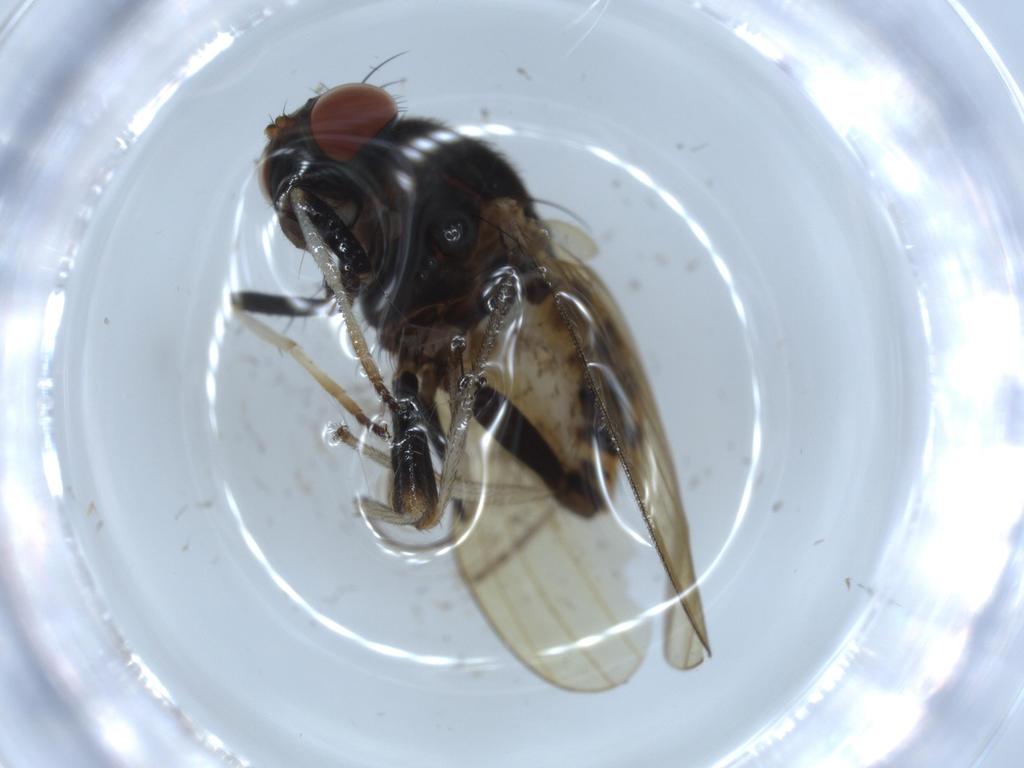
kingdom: Animalia
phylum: Arthropoda
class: Insecta
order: Diptera
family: Cecidomyiidae
